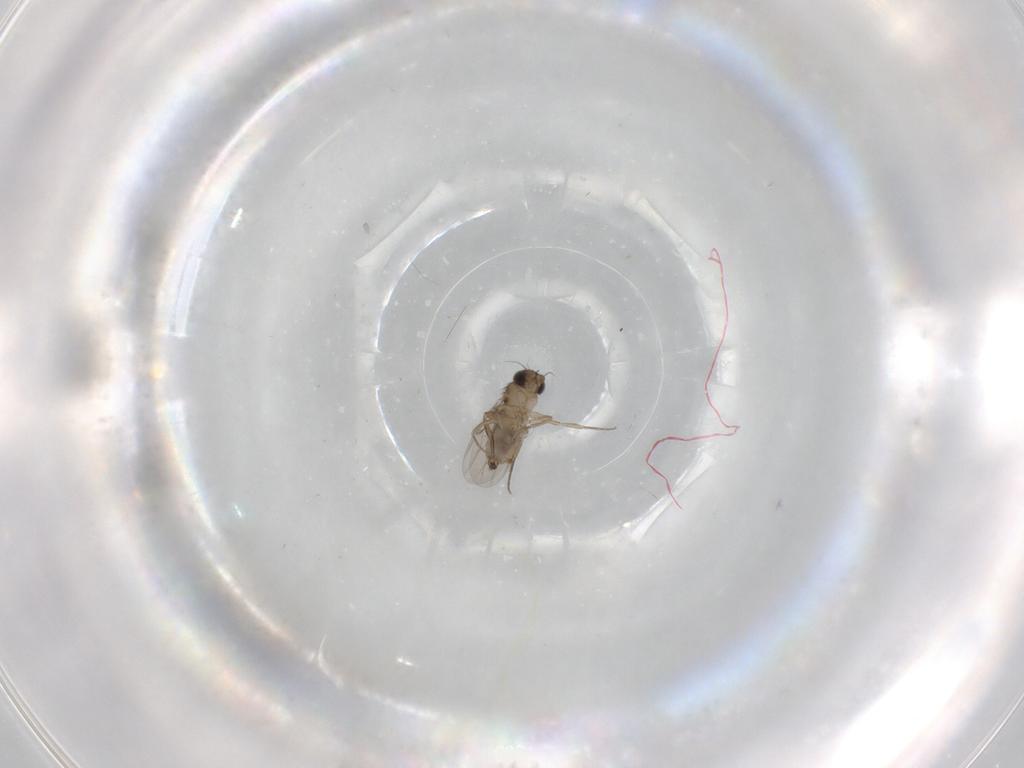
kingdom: Animalia
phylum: Arthropoda
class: Insecta
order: Diptera
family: Phoridae
